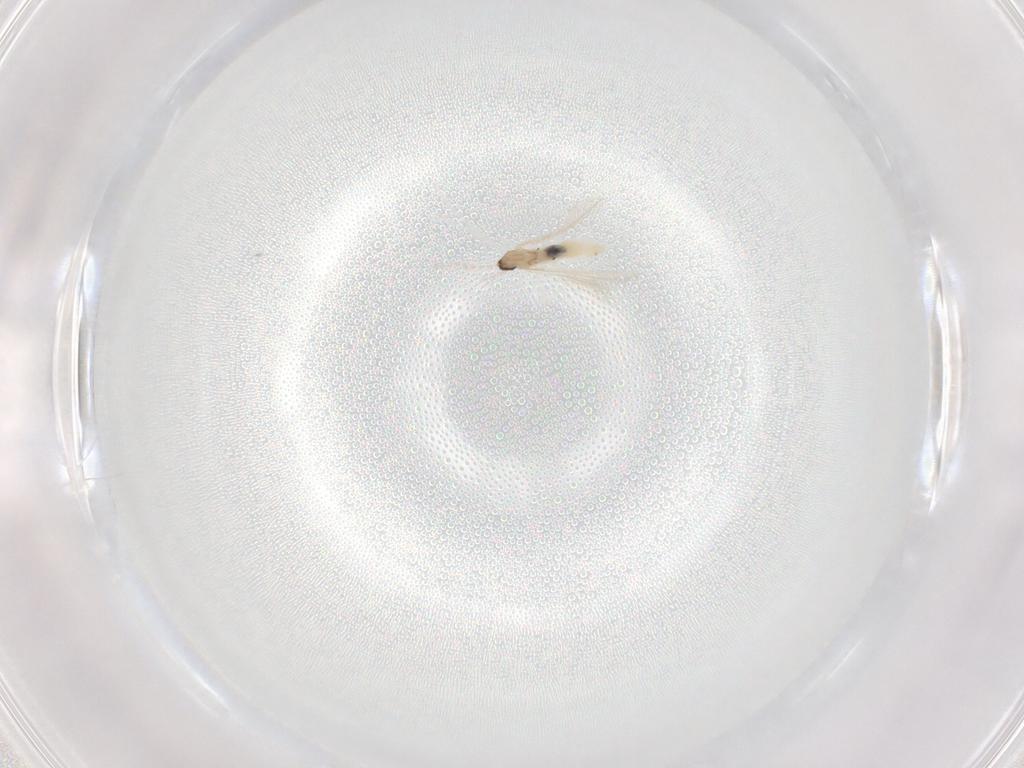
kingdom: Animalia
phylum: Arthropoda
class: Insecta
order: Diptera
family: Cecidomyiidae
